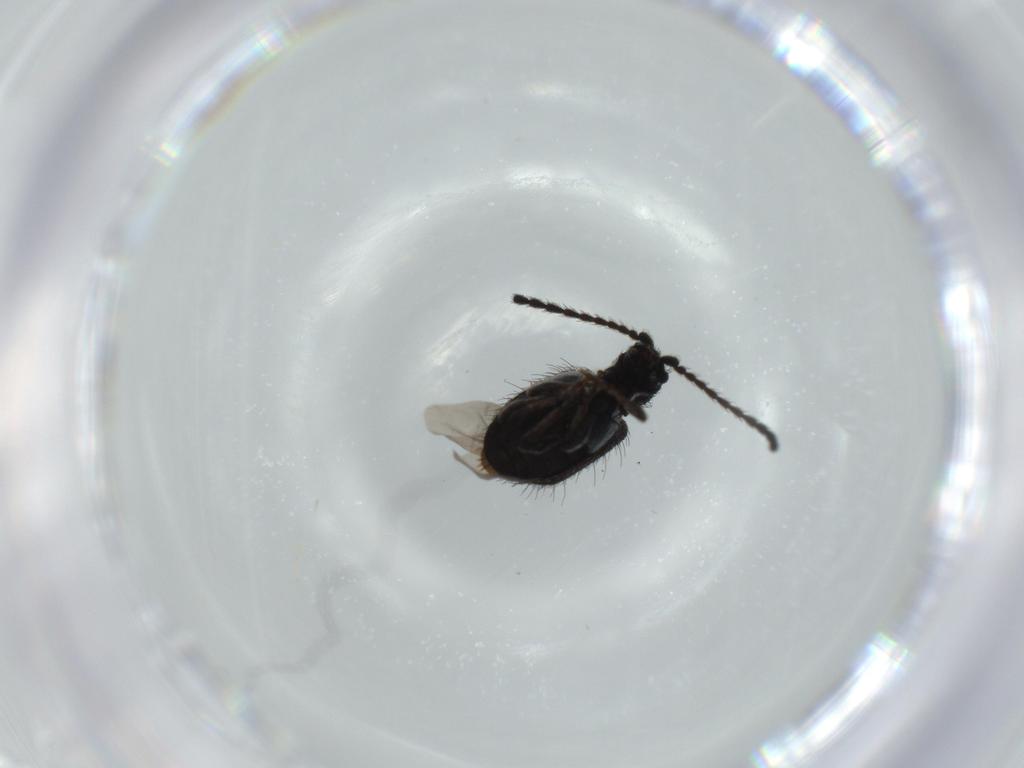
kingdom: Animalia
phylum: Arthropoda
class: Insecta
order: Coleoptera
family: Ptinidae
